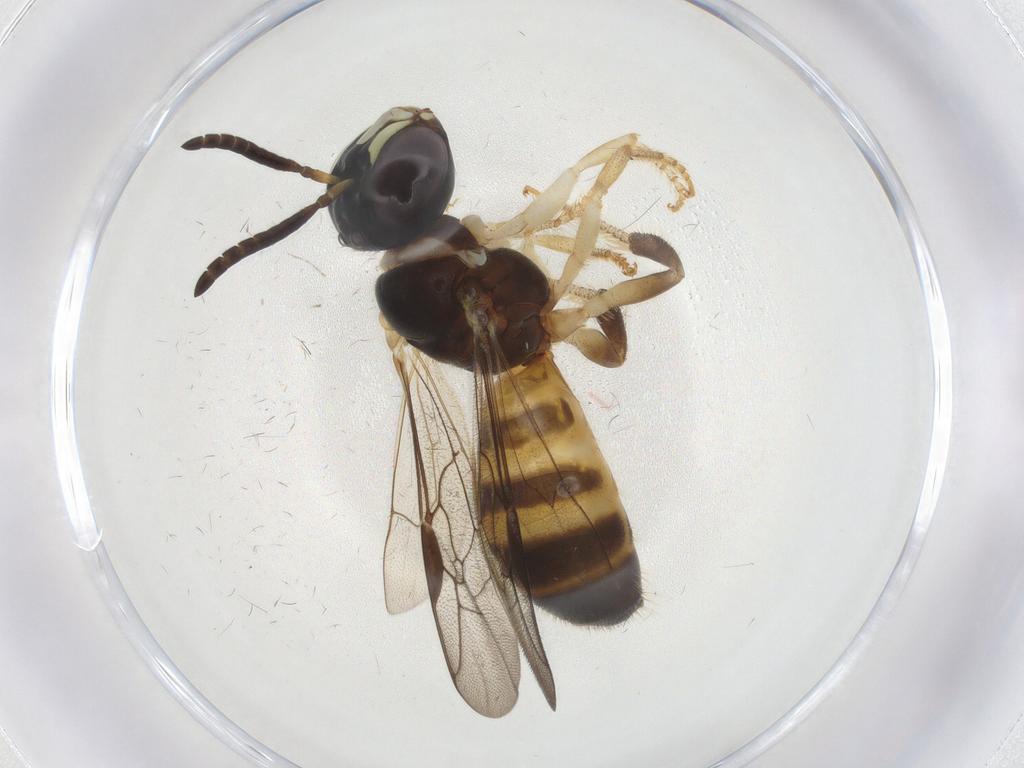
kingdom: Animalia
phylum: Arthropoda
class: Insecta
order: Hymenoptera
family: Apidae
